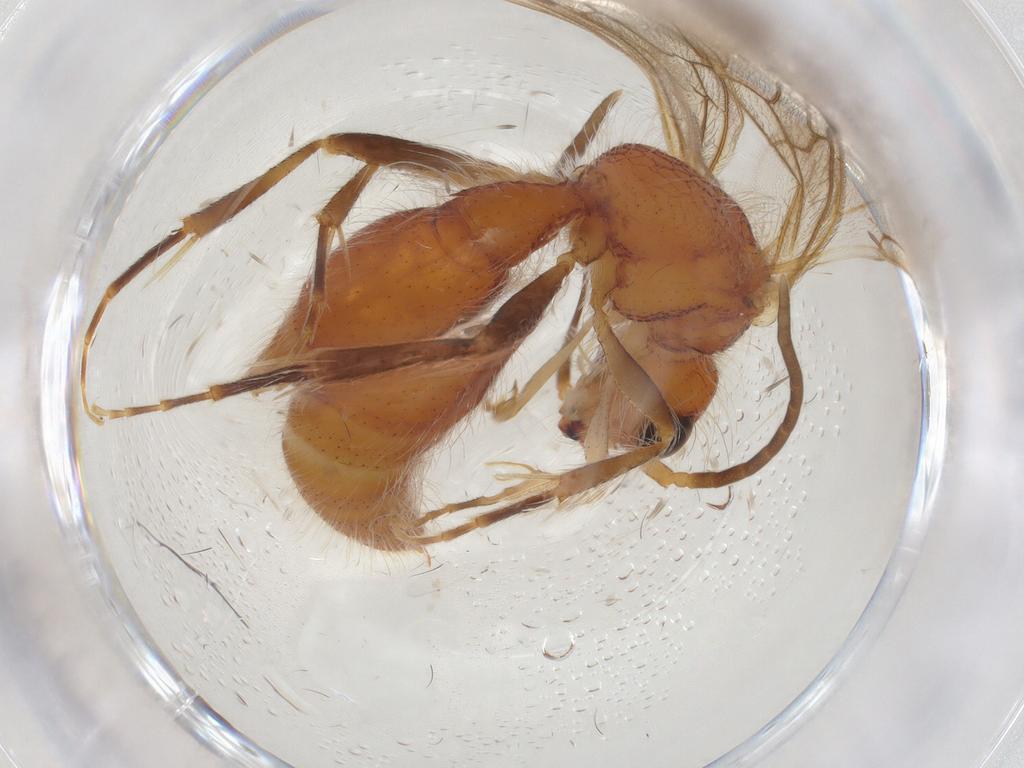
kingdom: Animalia
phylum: Arthropoda
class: Insecta
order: Hymenoptera
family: Mutillidae
